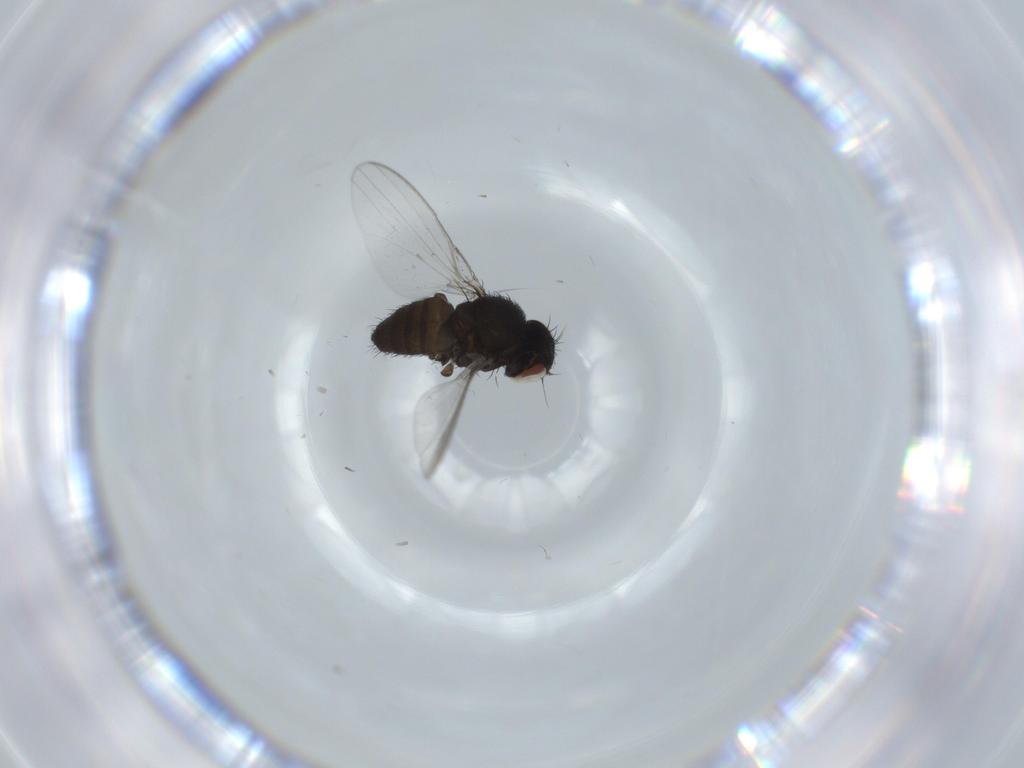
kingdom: Animalia
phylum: Arthropoda
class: Insecta
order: Diptera
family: Milichiidae
